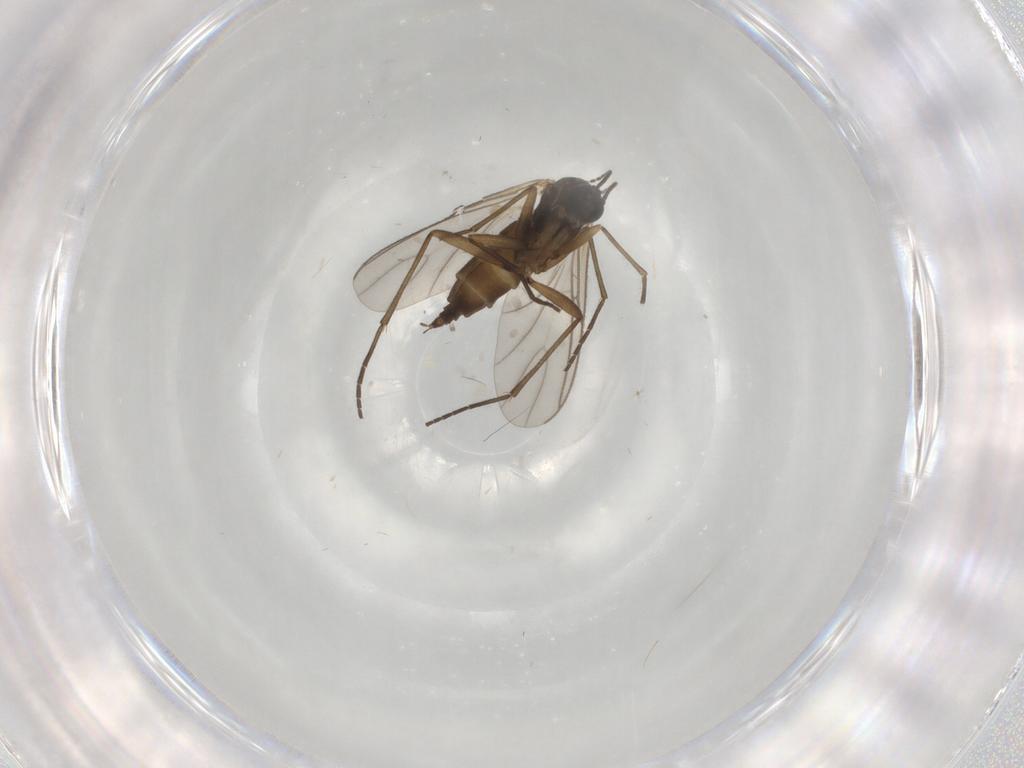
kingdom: Animalia
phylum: Arthropoda
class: Insecta
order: Diptera
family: Sciaridae
